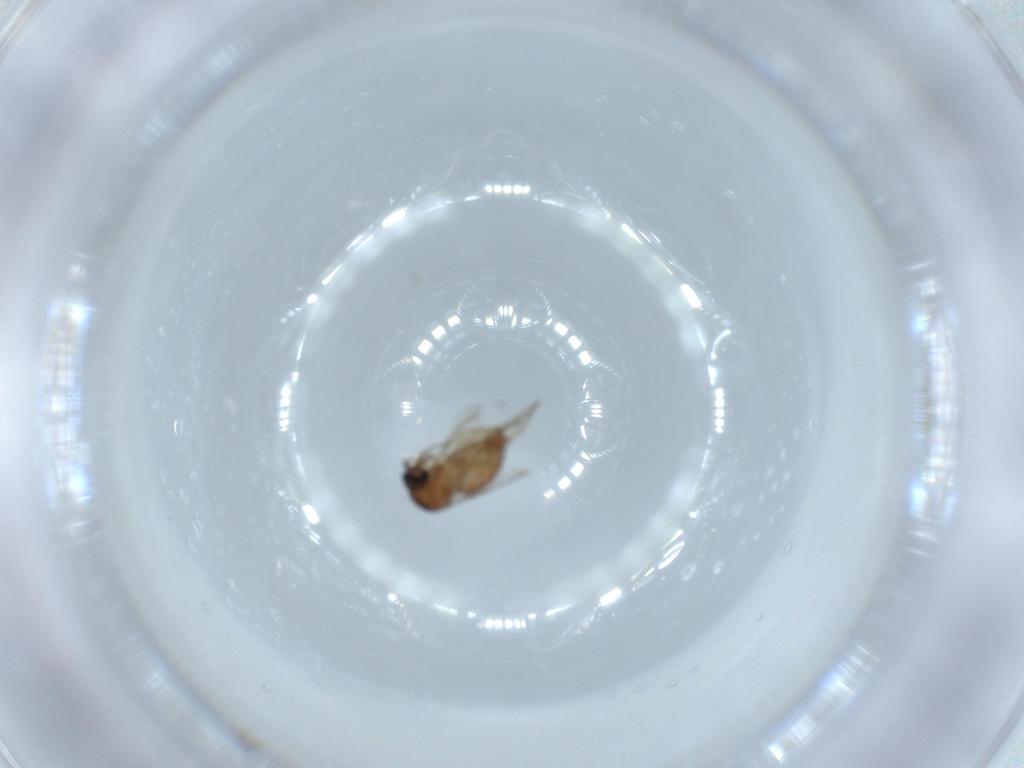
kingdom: Animalia
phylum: Arthropoda
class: Insecta
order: Diptera
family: Ceratopogonidae
